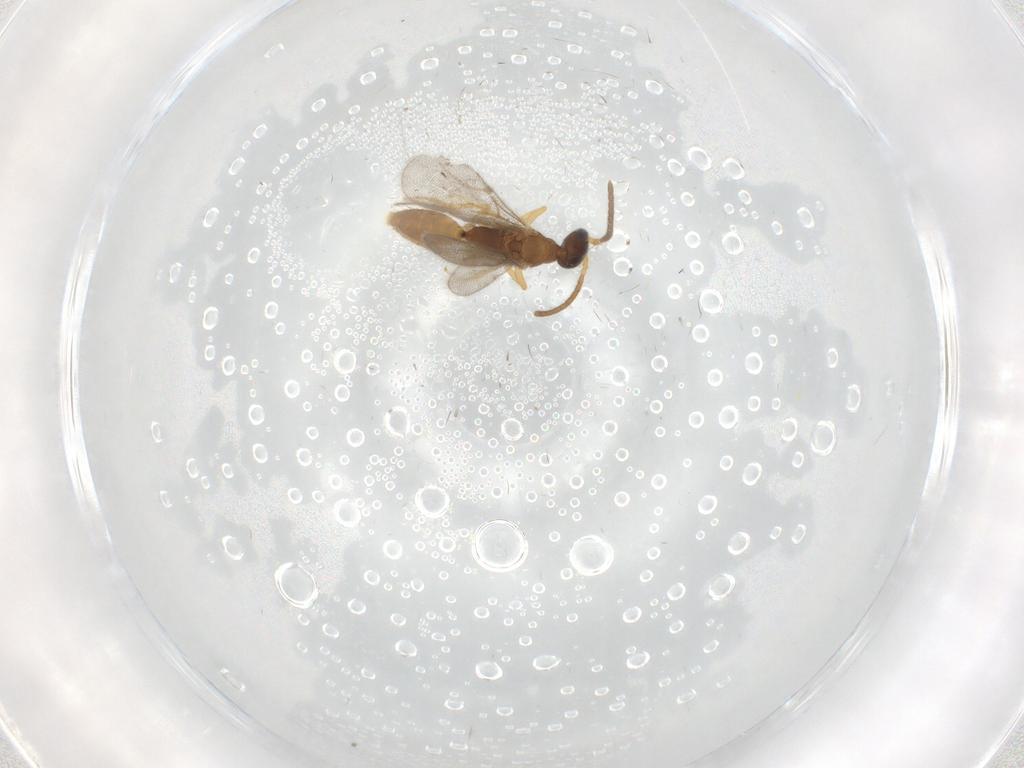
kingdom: Animalia
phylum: Arthropoda
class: Insecta
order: Hymenoptera
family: Bethylidae
